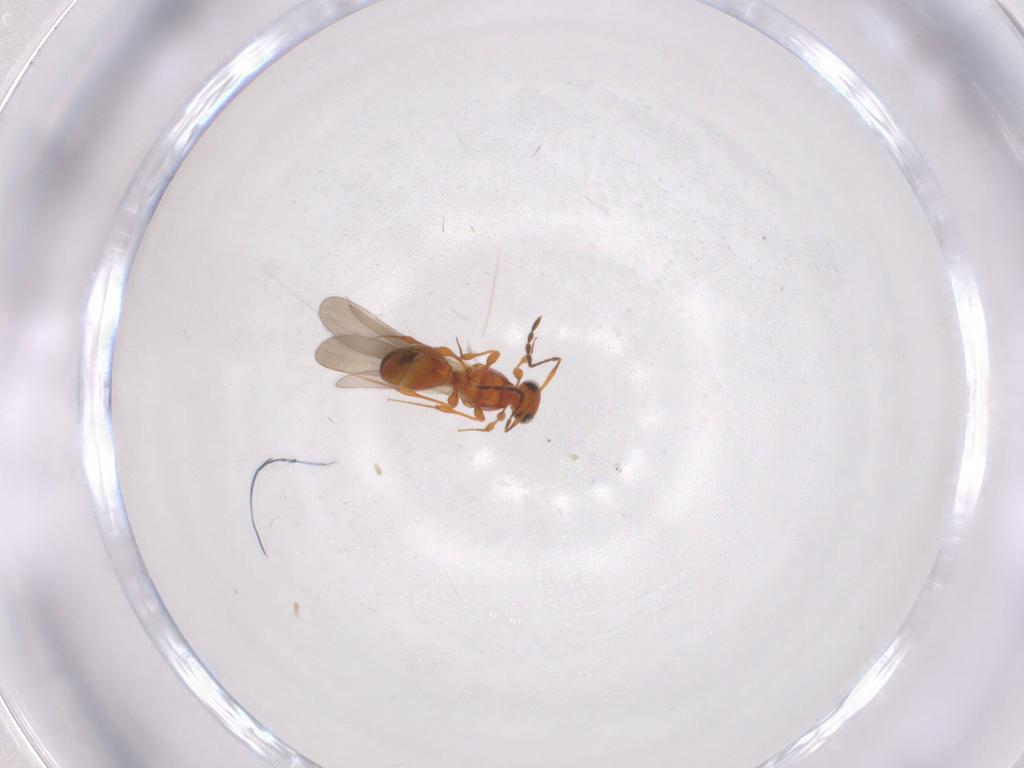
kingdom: Animalia
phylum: Arthropoda
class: Insecta
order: Hymenoptera
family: Platygastridae
